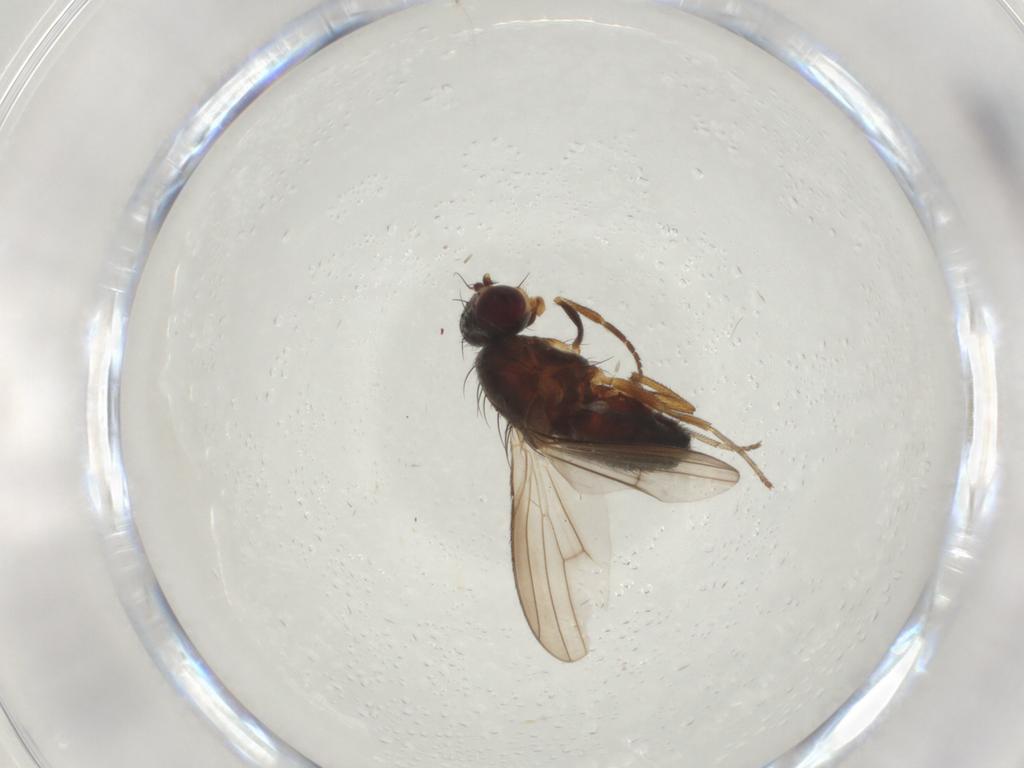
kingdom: Animalia
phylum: Arthropoda
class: Insecta
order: Diptera
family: Heleomyzidae
